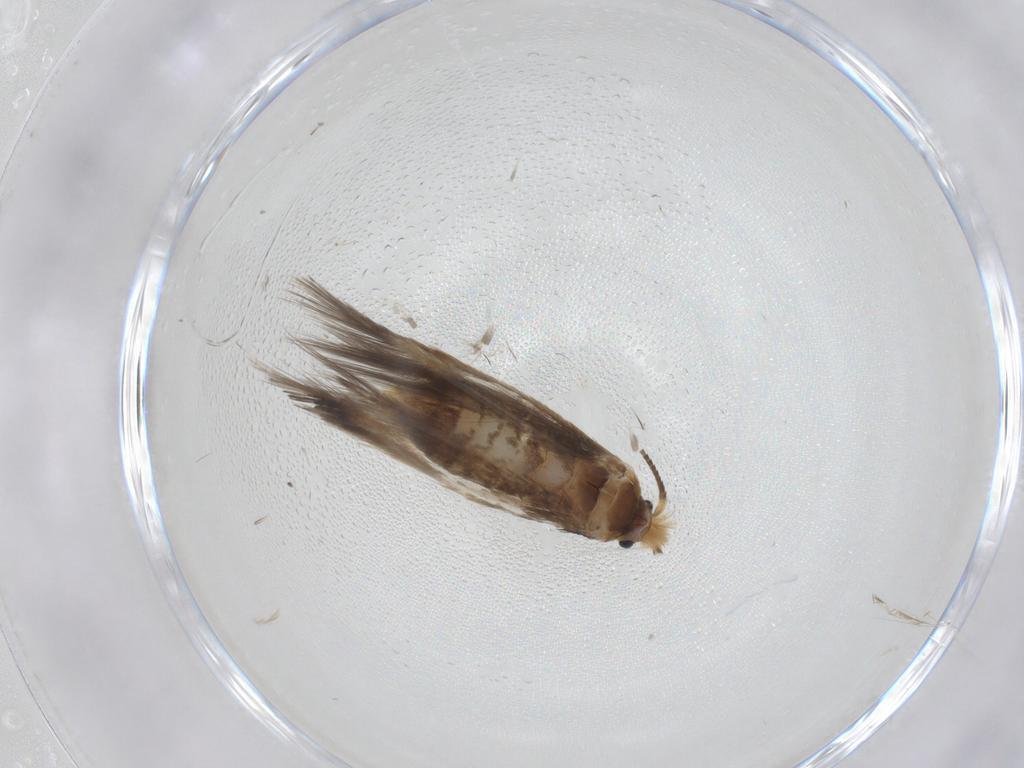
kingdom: Animalia
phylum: Arthropoda
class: Insecta
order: Lepidoptera
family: Nepticulidae
